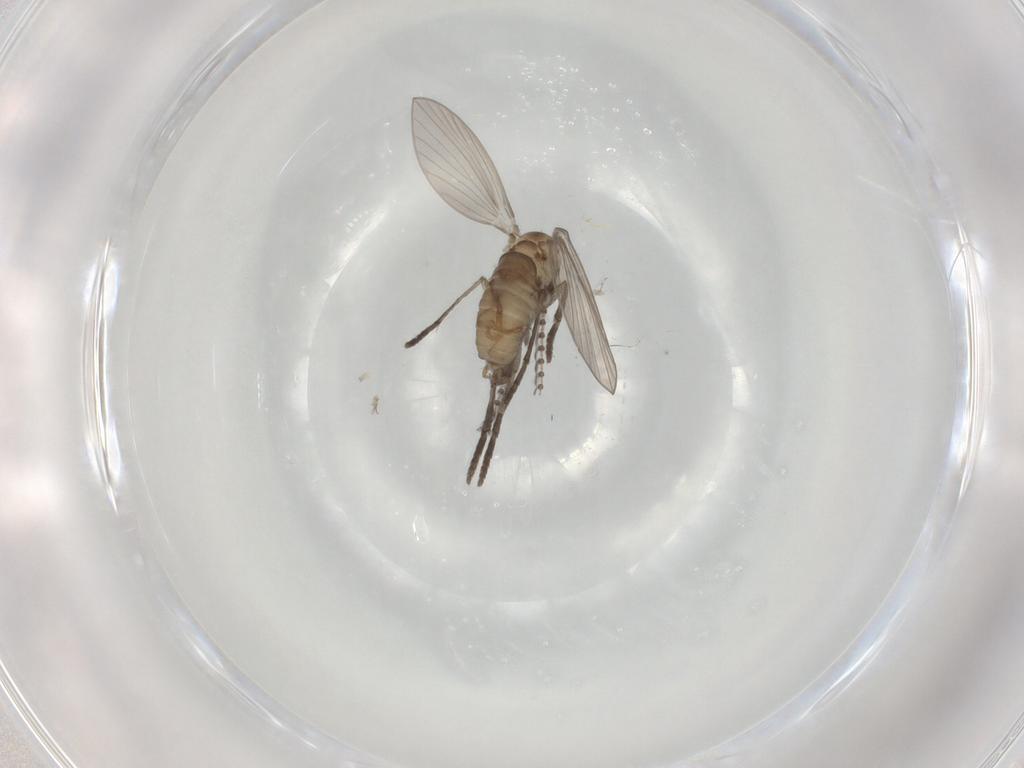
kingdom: Animalia
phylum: Arthropoda
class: Insecta
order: Diptera
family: Psychodidae
